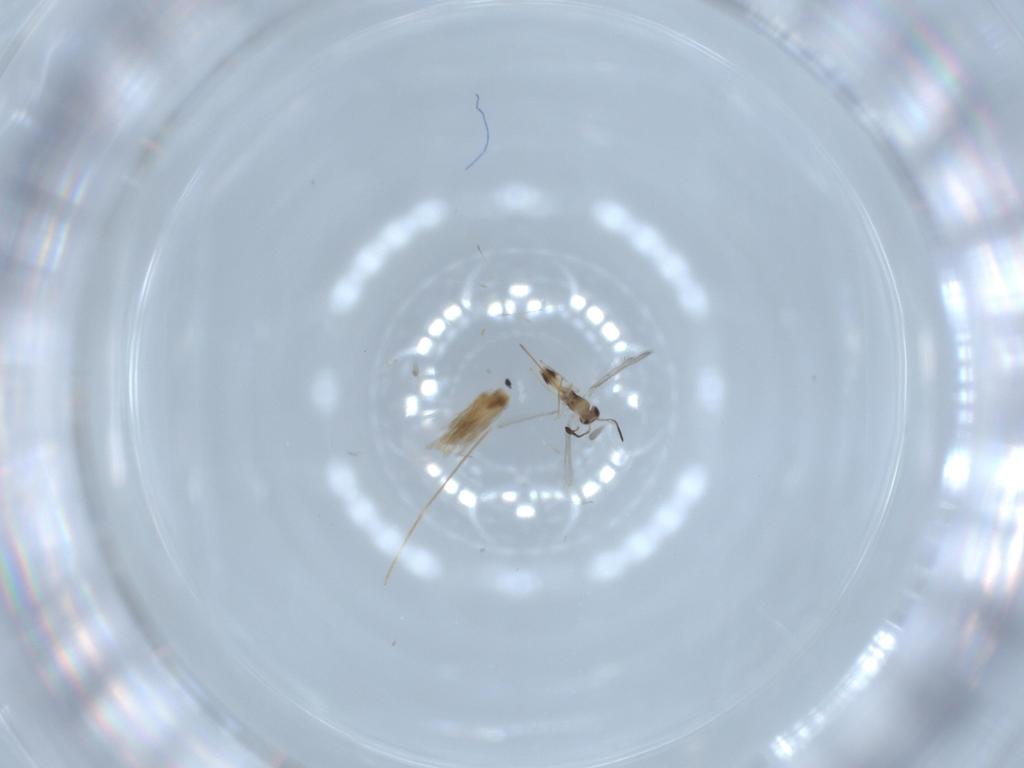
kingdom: Animalia
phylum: Arthropoda
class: Insecta
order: Hymenoptera
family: Mymaridae
